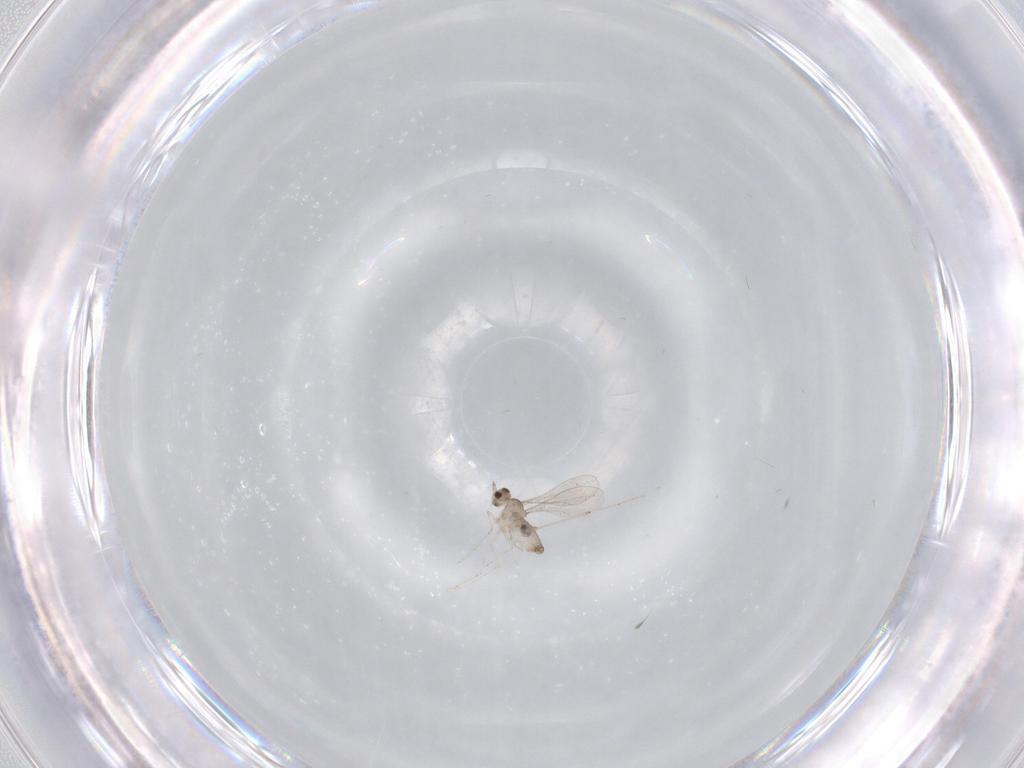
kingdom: Animalia
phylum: Arthropoda
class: Insecta
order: Diptera
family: Cecidomyiidae
